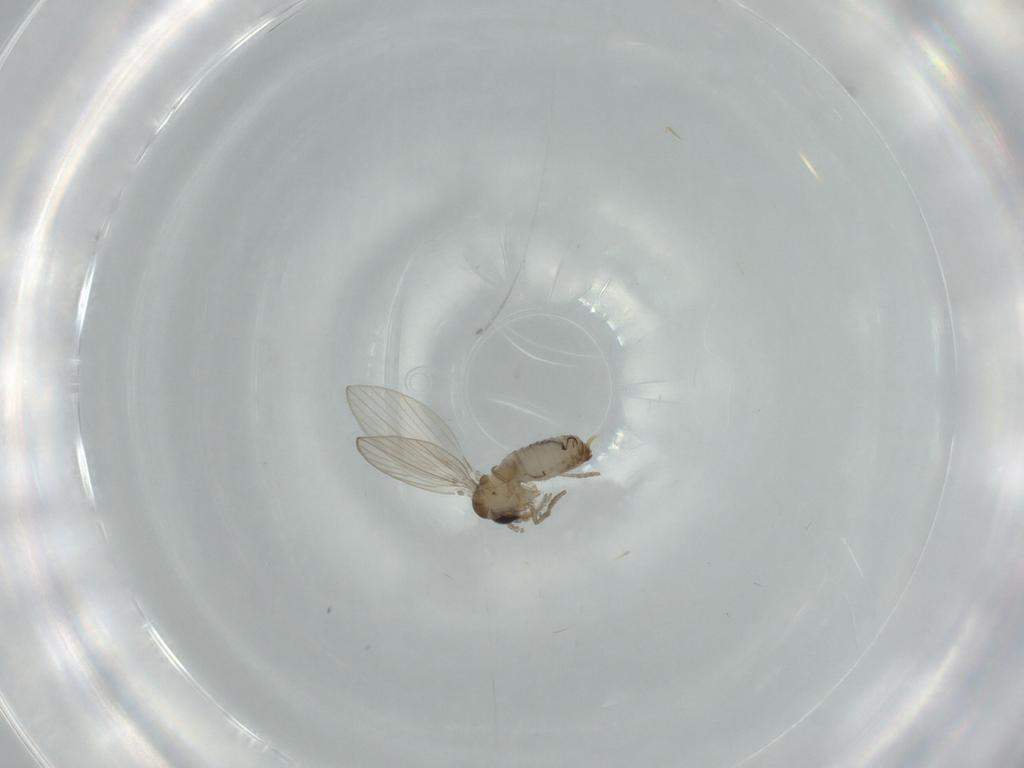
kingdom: Animalia
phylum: Arthropoda
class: Insecta
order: Diptera
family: Psychodidae
